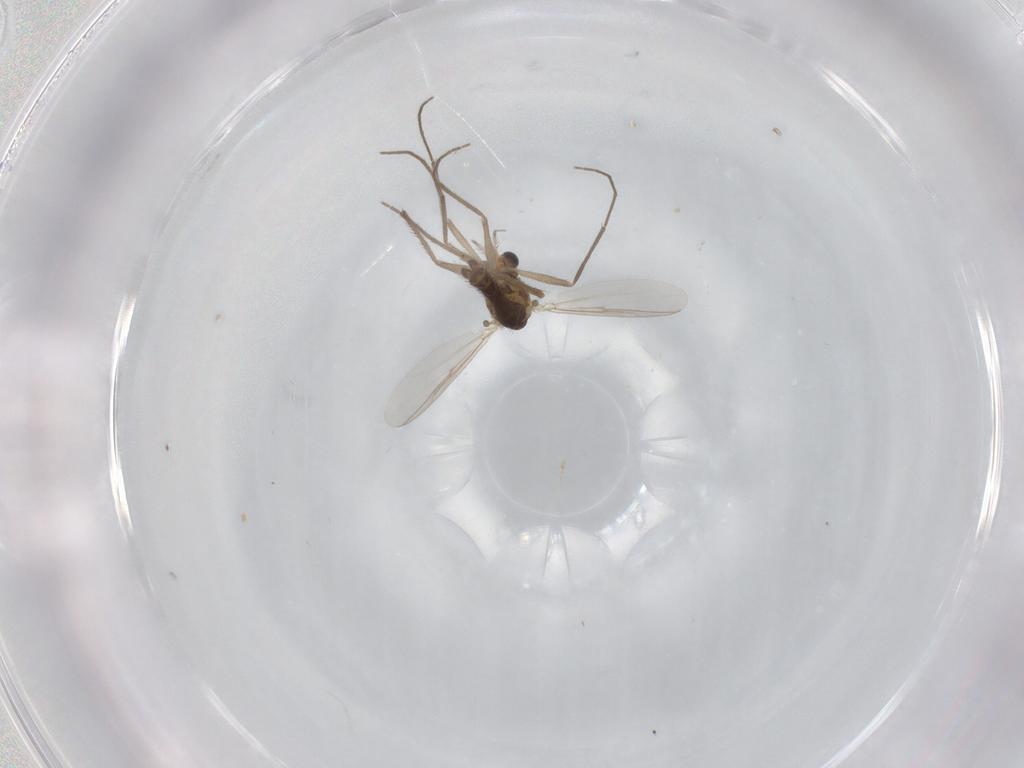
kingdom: Animalia
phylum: Arthropoda
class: Insecta
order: Diptera
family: Chironomidae
